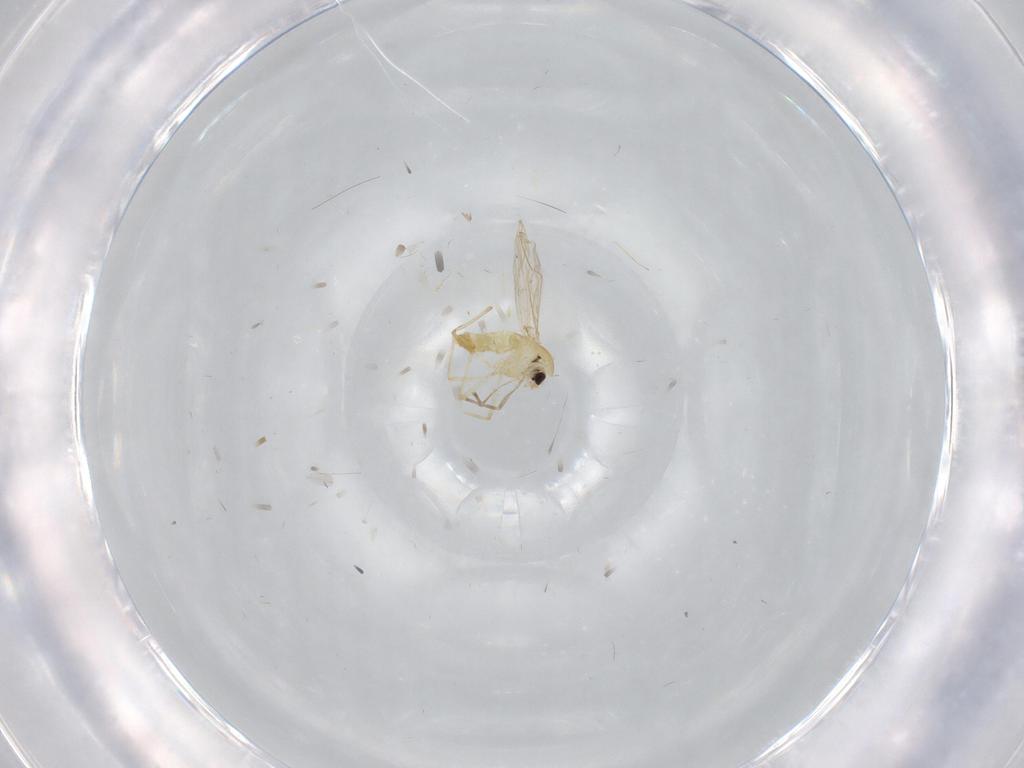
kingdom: Animalia
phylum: Arthropoda
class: Insecta
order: Diptera
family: Chironomidae
